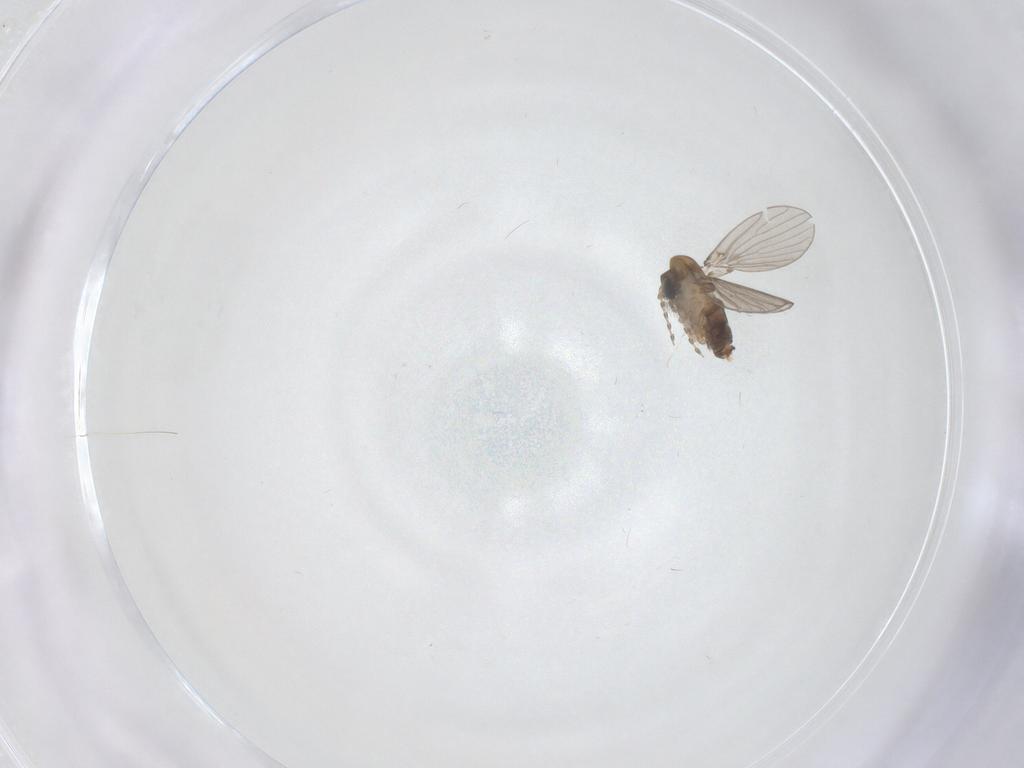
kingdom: Animalia
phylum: Arthropoda
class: Insecta
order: Diptera
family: Psychodidae
